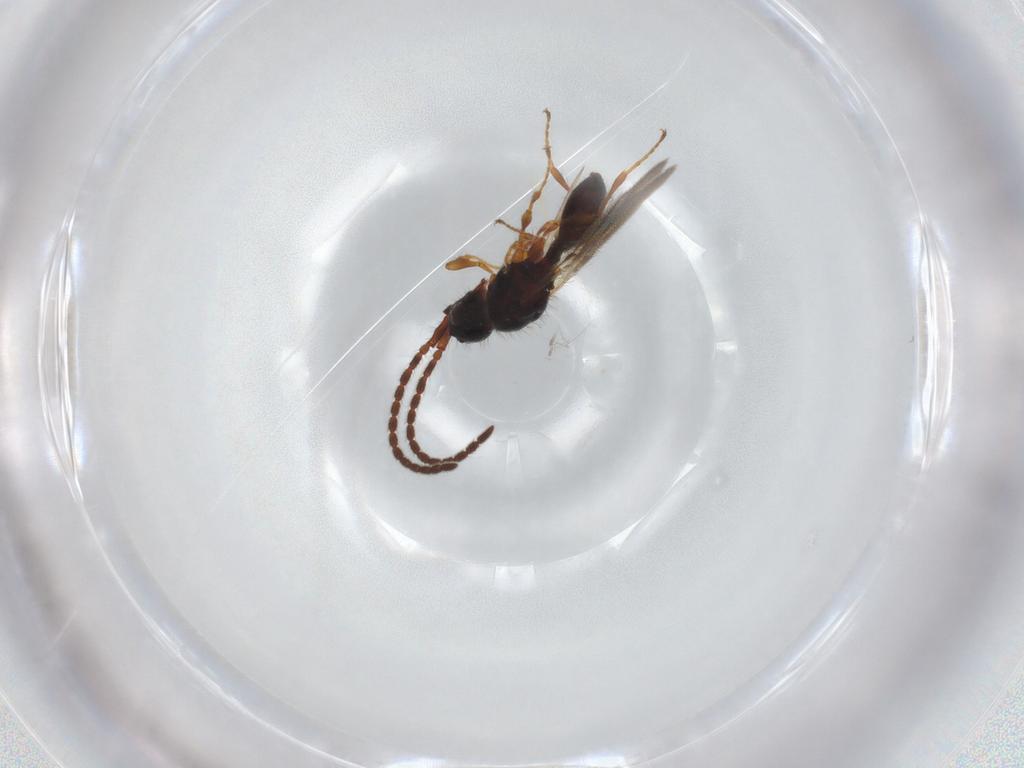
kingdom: Animalia
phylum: Arthropoda
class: Insecta
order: Hymenoptera
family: Diapriidae
